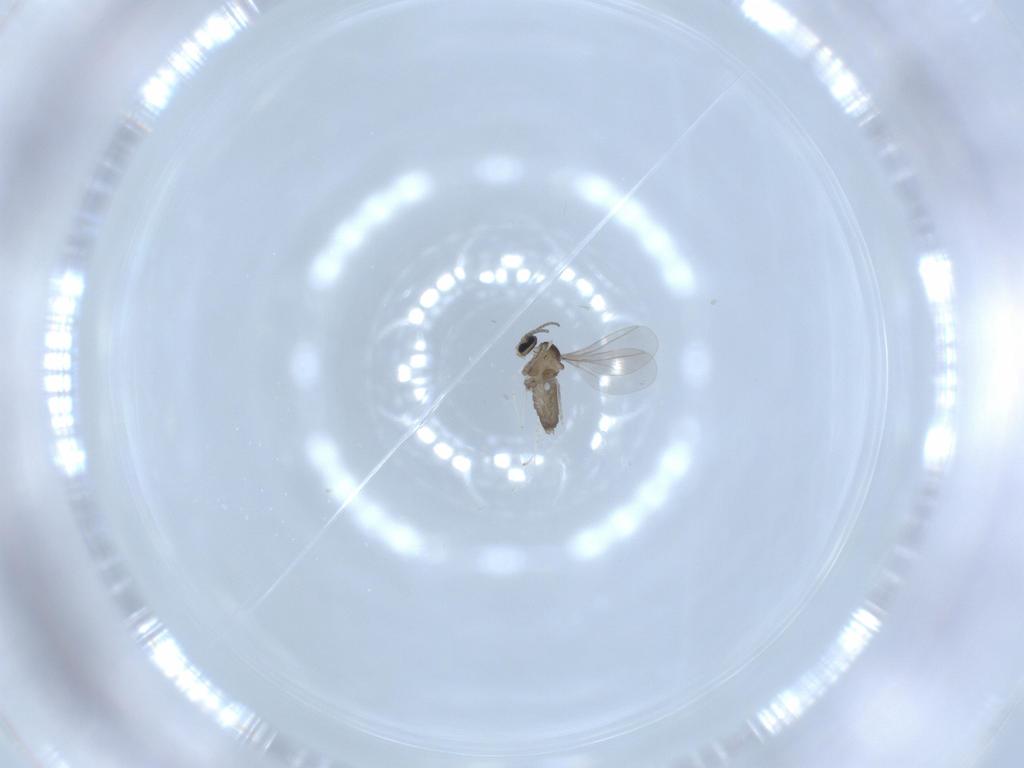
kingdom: Animalia
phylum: Arthropoda
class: Insecta
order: Diptera
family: Cecidomyiidae
